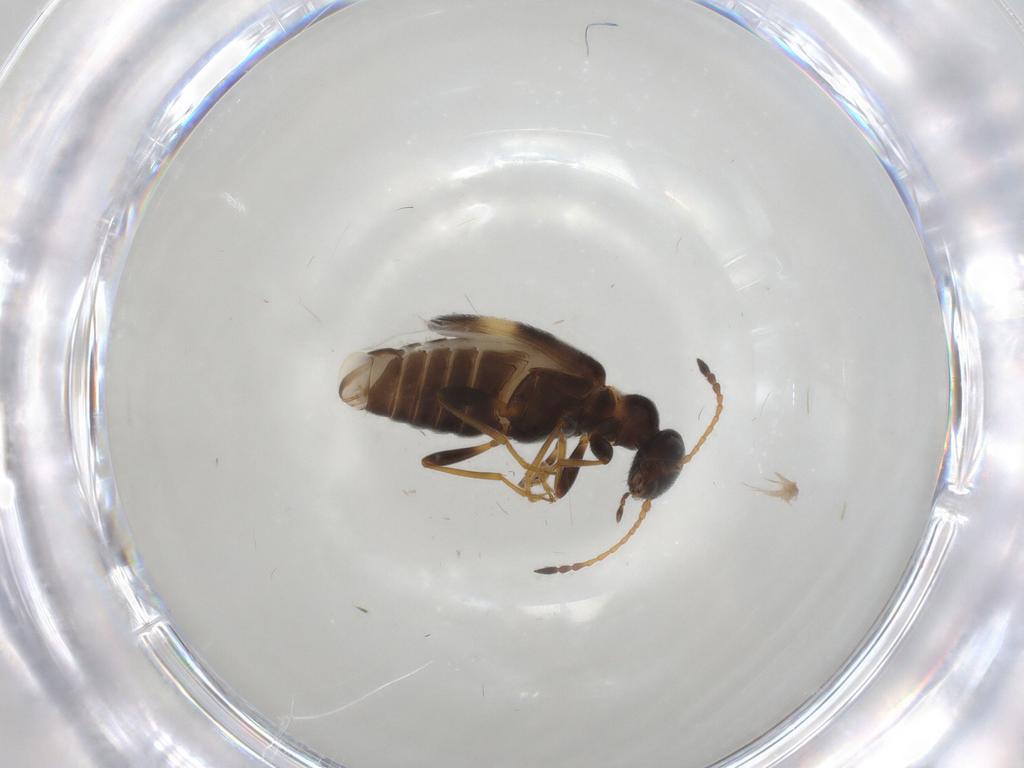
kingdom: Animalia
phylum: Arthropoda
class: Insecta
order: Coleoptera
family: Anthicidae
